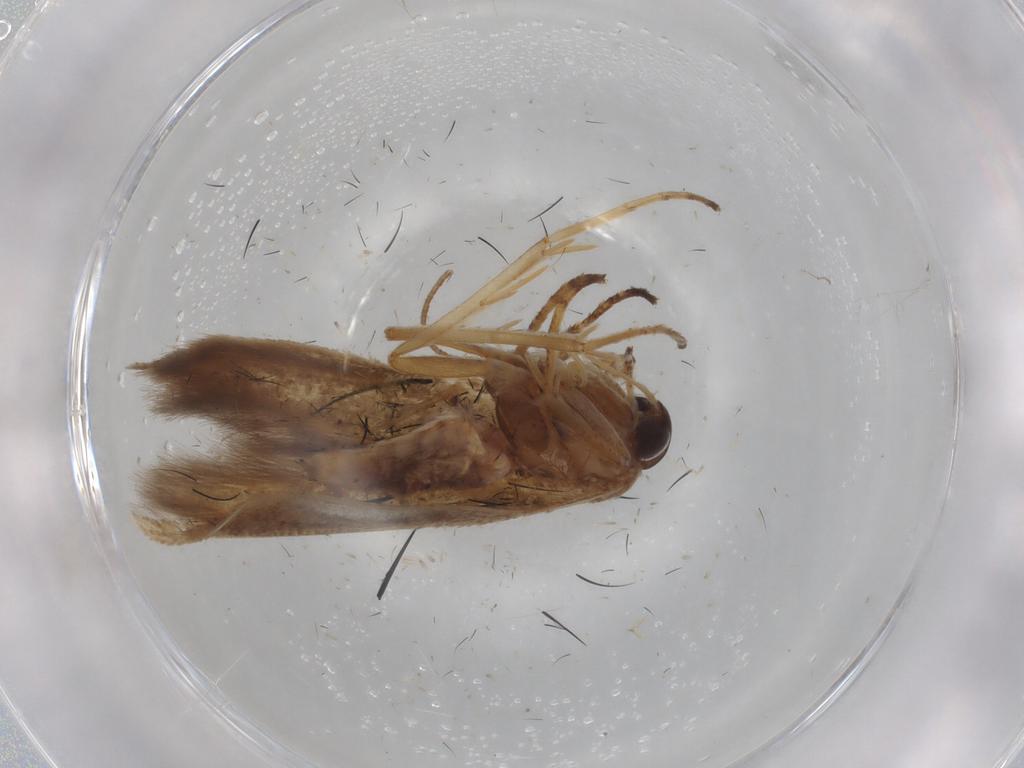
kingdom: Animalia
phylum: Arthropoda
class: Insecta
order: Lepidoptera
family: Scythrididae
